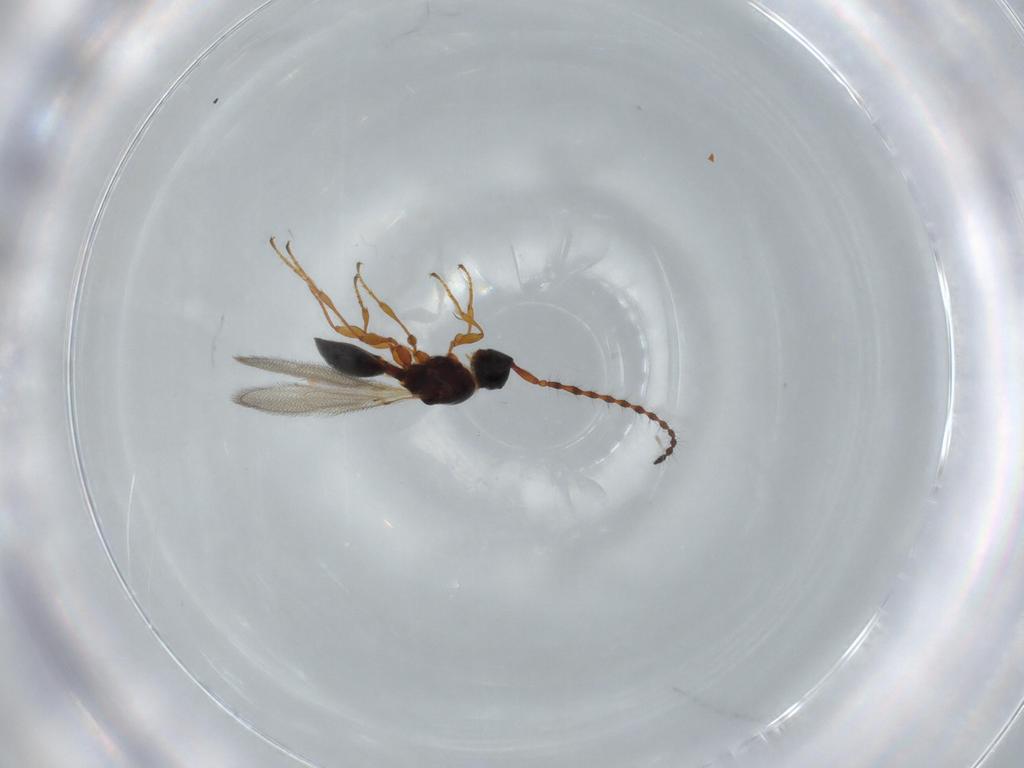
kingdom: Animalia
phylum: Arthropoda
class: Insecta
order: Hymenoptera
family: Diapriidae
